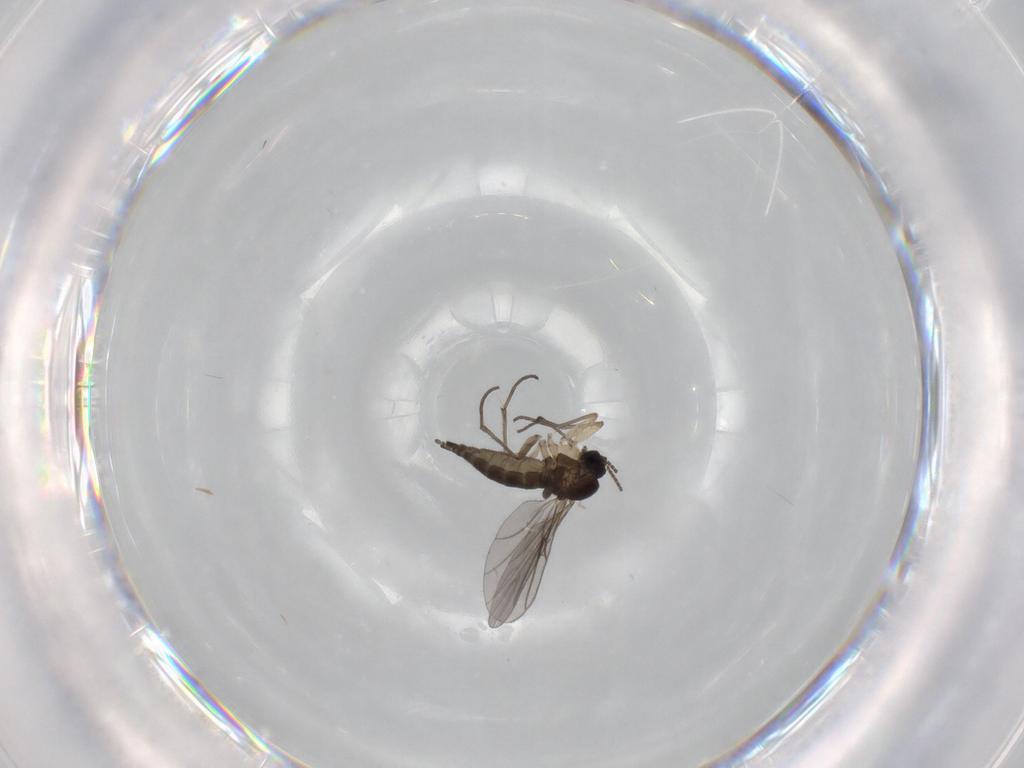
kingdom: Animalia
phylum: Arthropoda
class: Insecta
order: Diptera
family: Sciaridae
